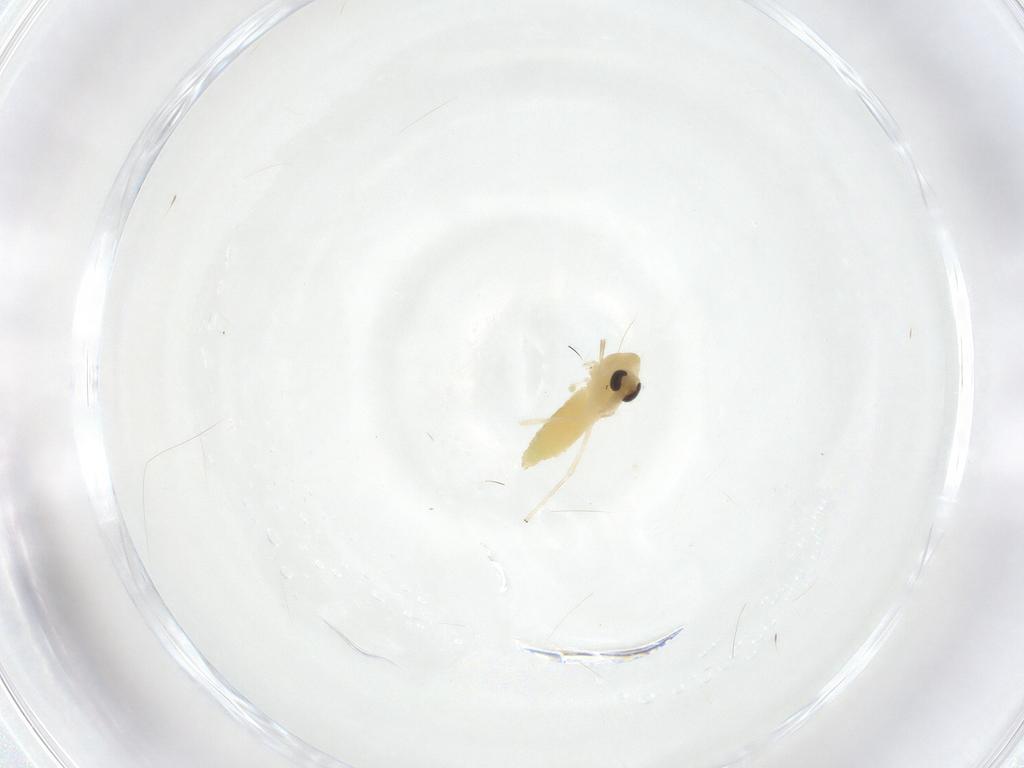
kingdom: Animalia
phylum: Arthropoda
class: Insecta
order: Diptera
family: Chironomidae
